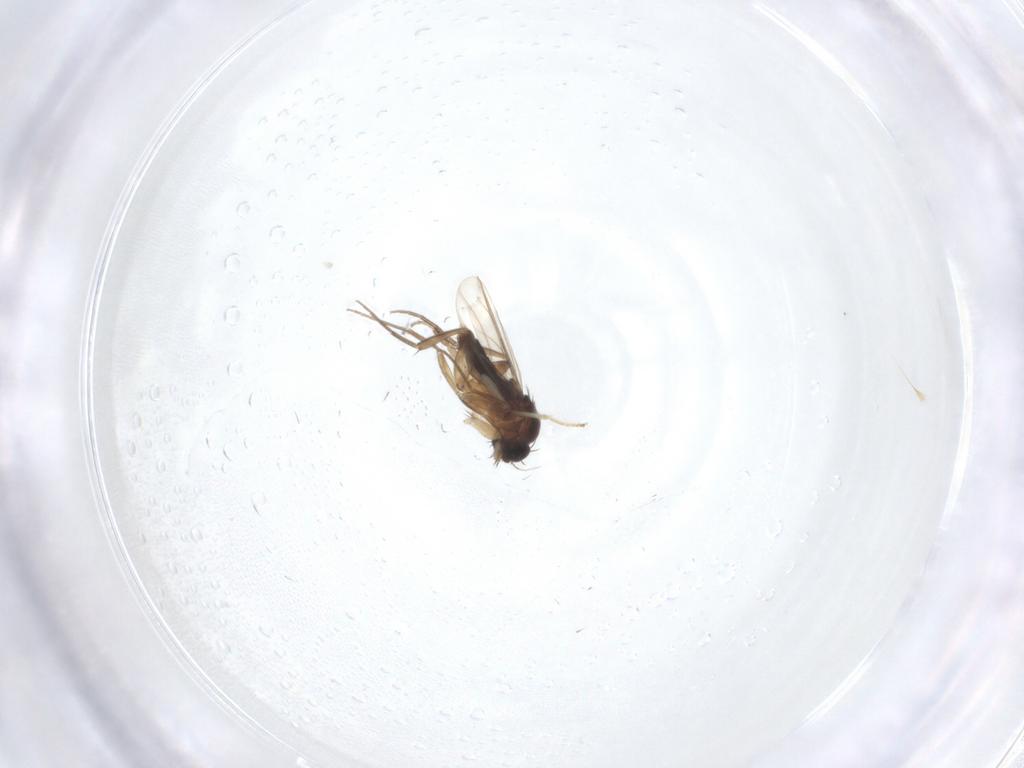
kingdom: Animalia
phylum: Arthropoda
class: Insecta
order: Diptera
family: Phoridae
